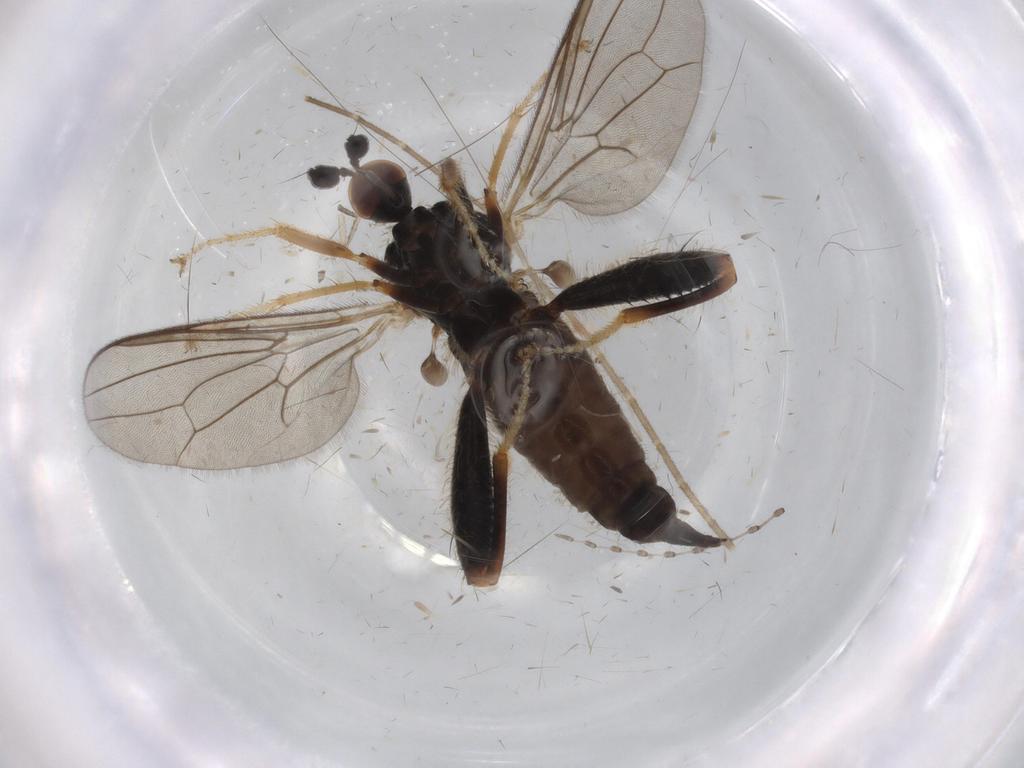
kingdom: Animalia
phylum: Arthropoda
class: Insecta
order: Diptera
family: Hybotidae
